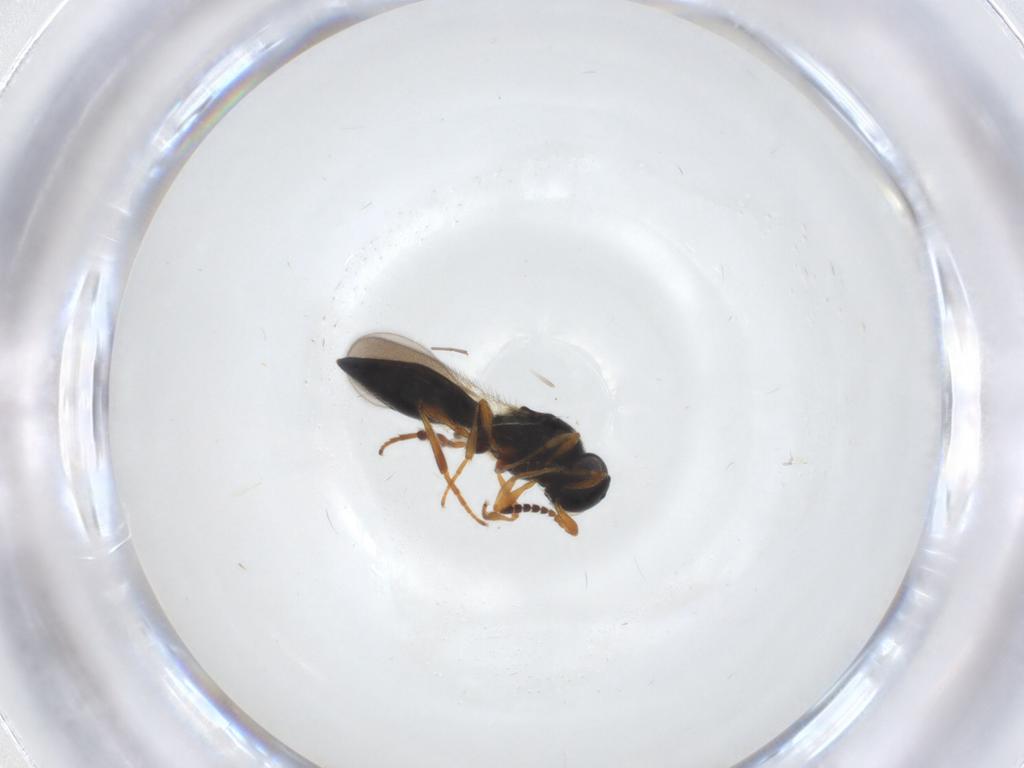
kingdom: Animalia
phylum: Arthropoda
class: Insecta
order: Hymenoptera
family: Platygastridae
